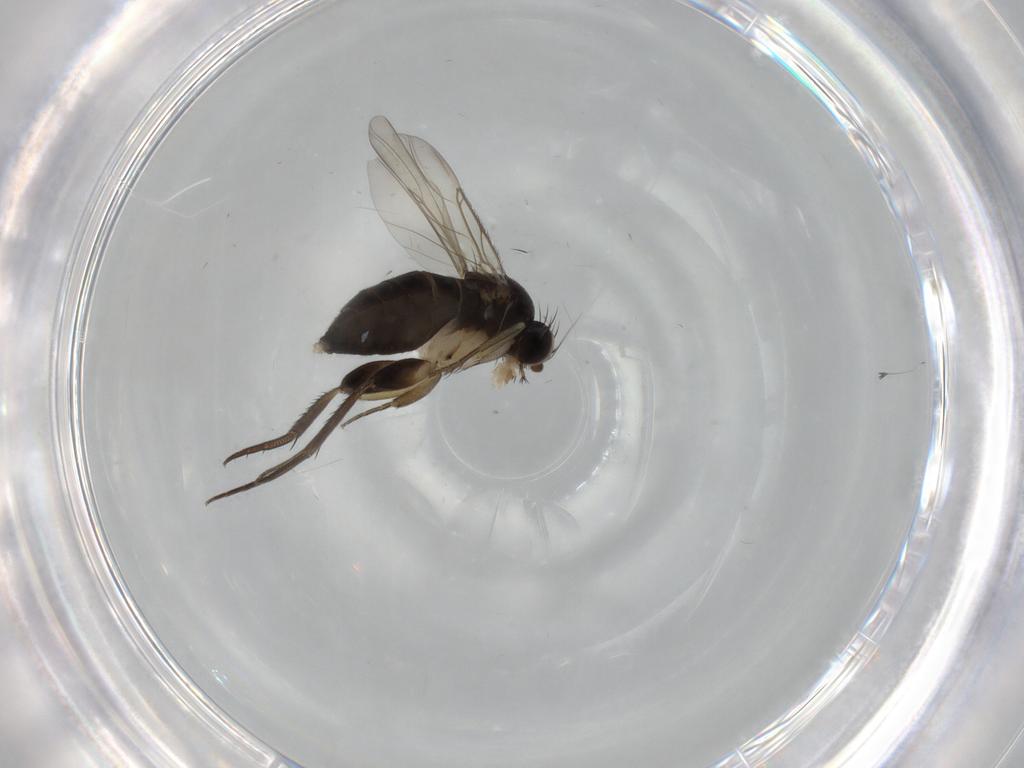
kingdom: Animalia
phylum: Arthropoda
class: Insecta
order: Diptera
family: Phoridae
